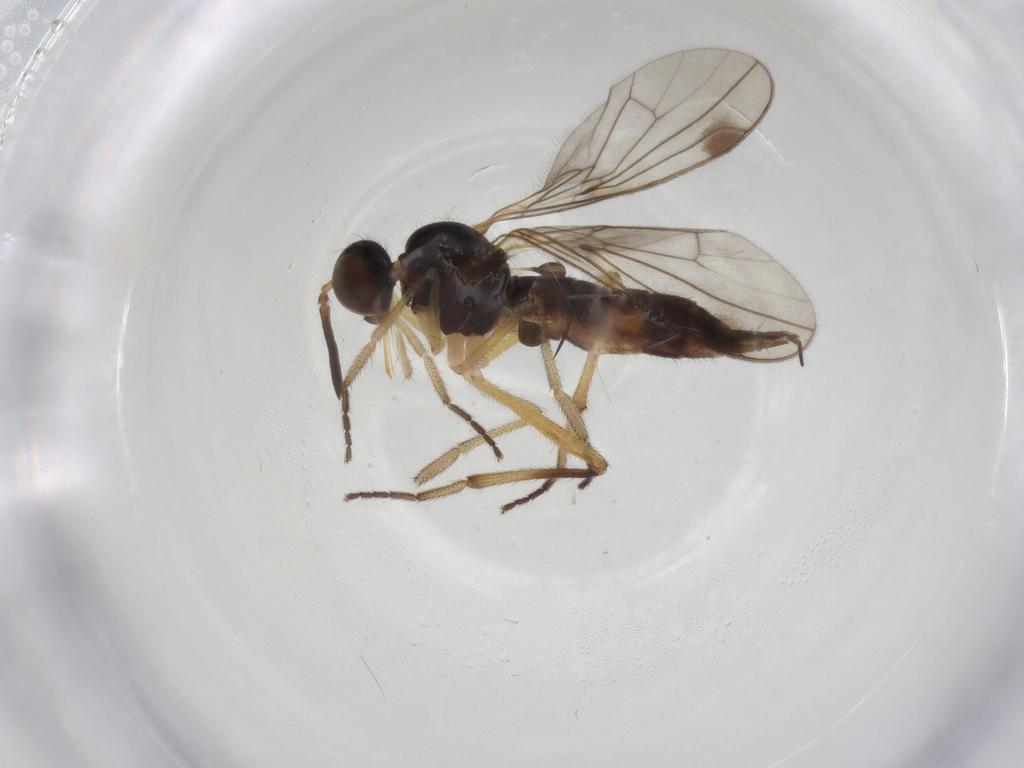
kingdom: Animalia
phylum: Arthropoda
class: Insecta
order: Diptera
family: Empididae
